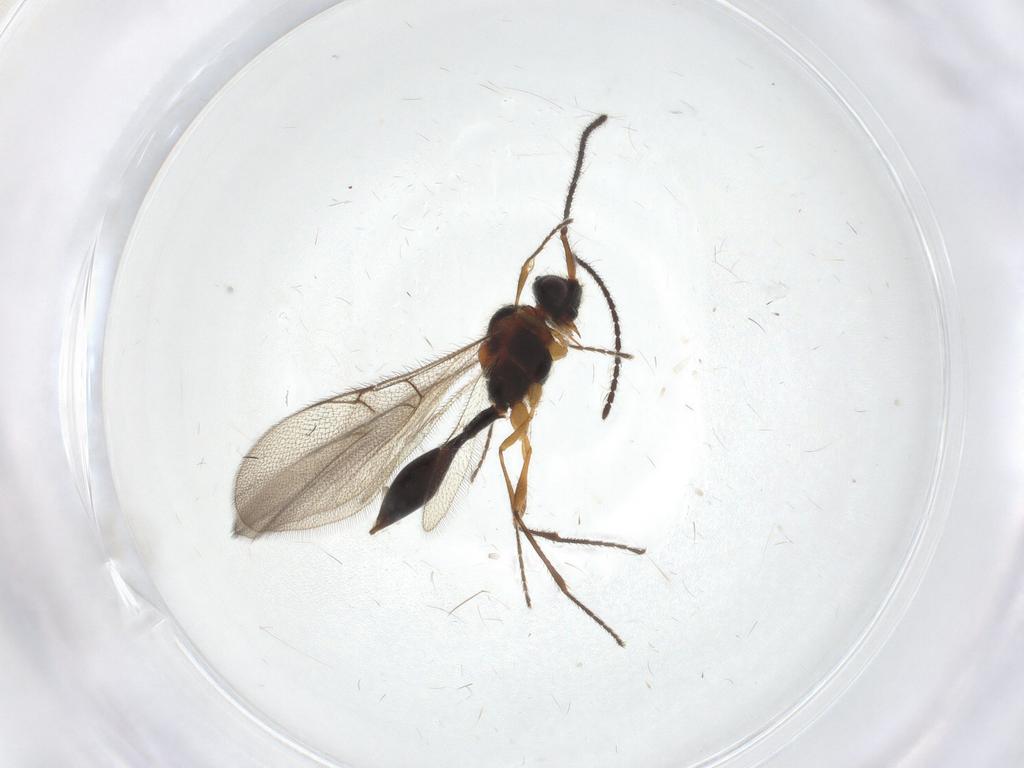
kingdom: Animalia
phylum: Arthropoda
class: Insecta
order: Hymenoptera
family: Diapriidae
